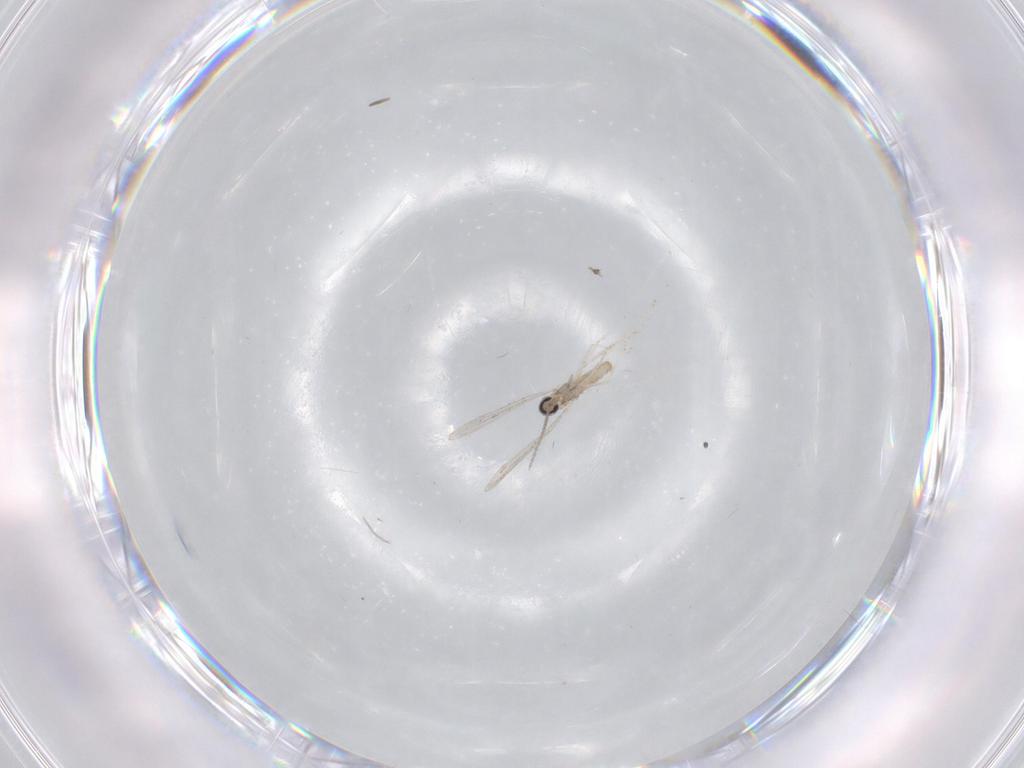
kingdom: Animalia
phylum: Arthropoda
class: Insecta
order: Diptera
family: Cecidomyiidae
